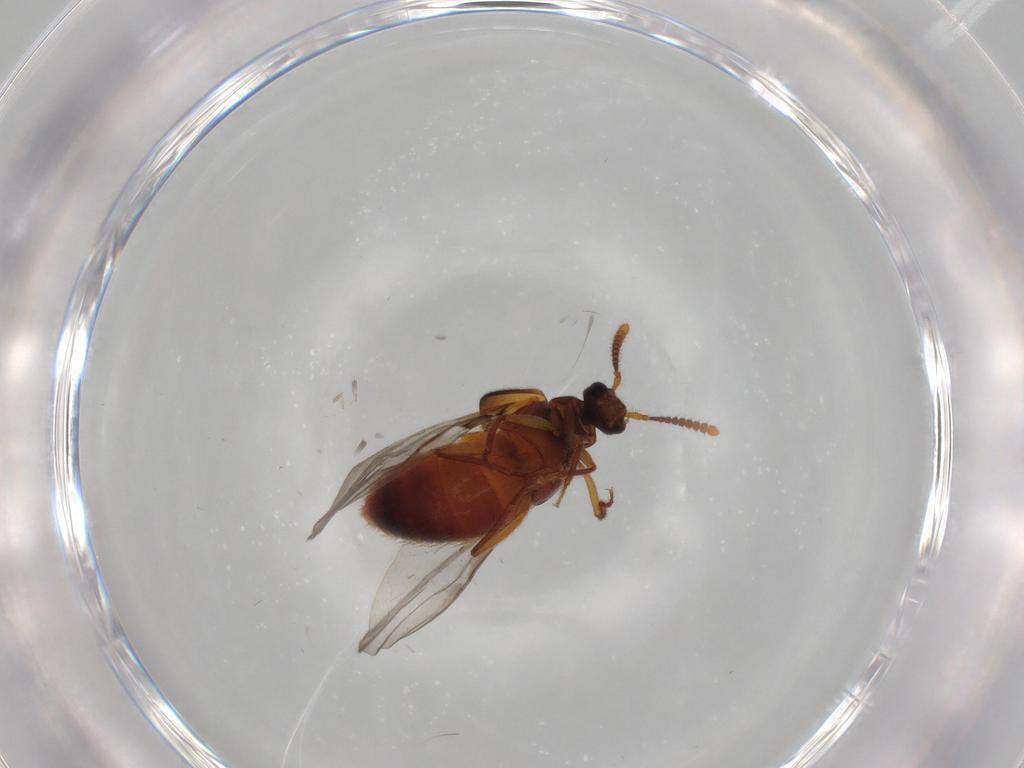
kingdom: Animalia
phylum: Arthropoda
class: Insecta
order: Coleoptera
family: Staphylinidae
